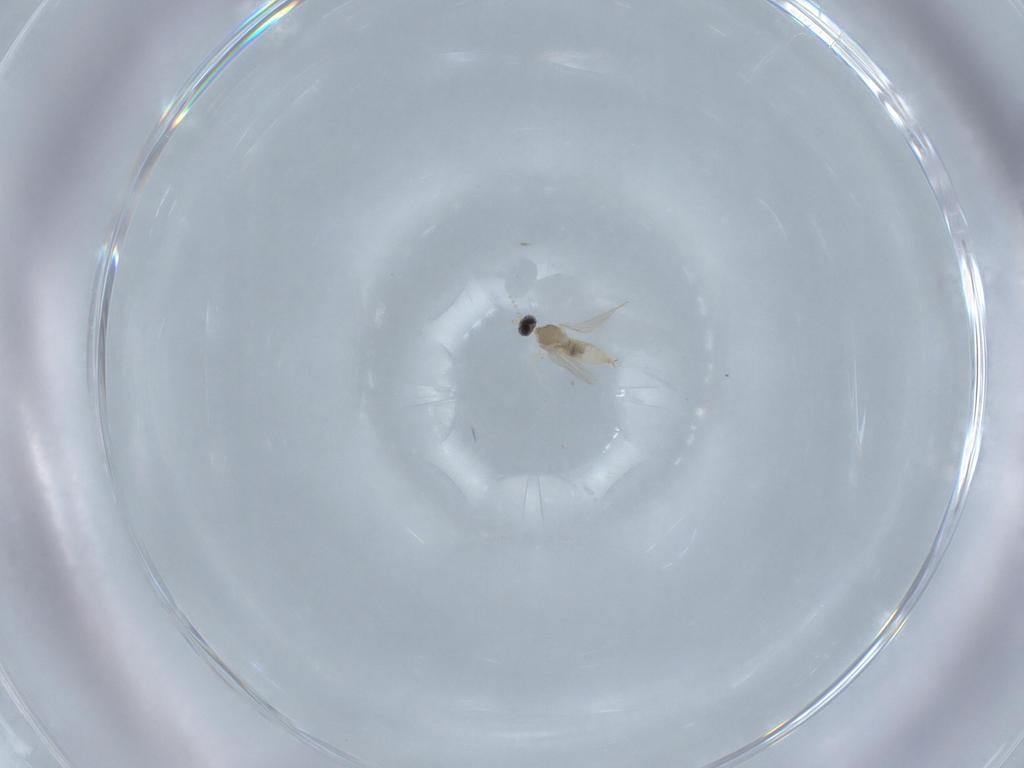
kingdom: Animalia
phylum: Arthropoda
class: Insecta
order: Diptera
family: Cecidomyiidae
